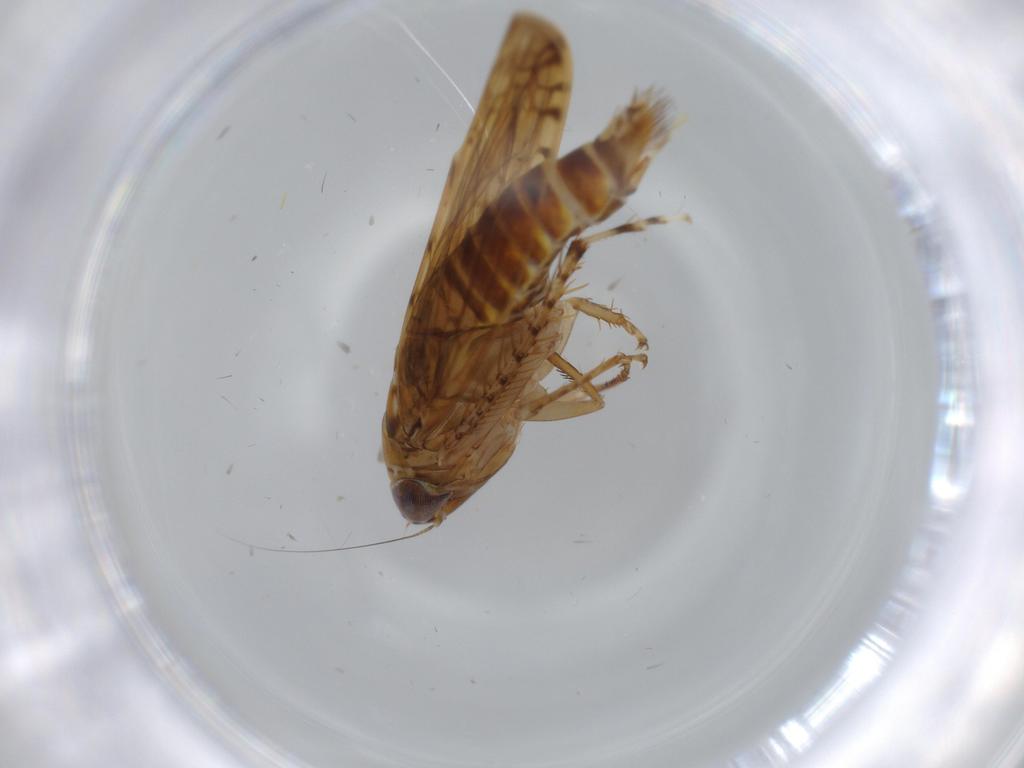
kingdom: Animalia
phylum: Arthropoda
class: Insecta
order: Hemiptera
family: Cicadellidae
